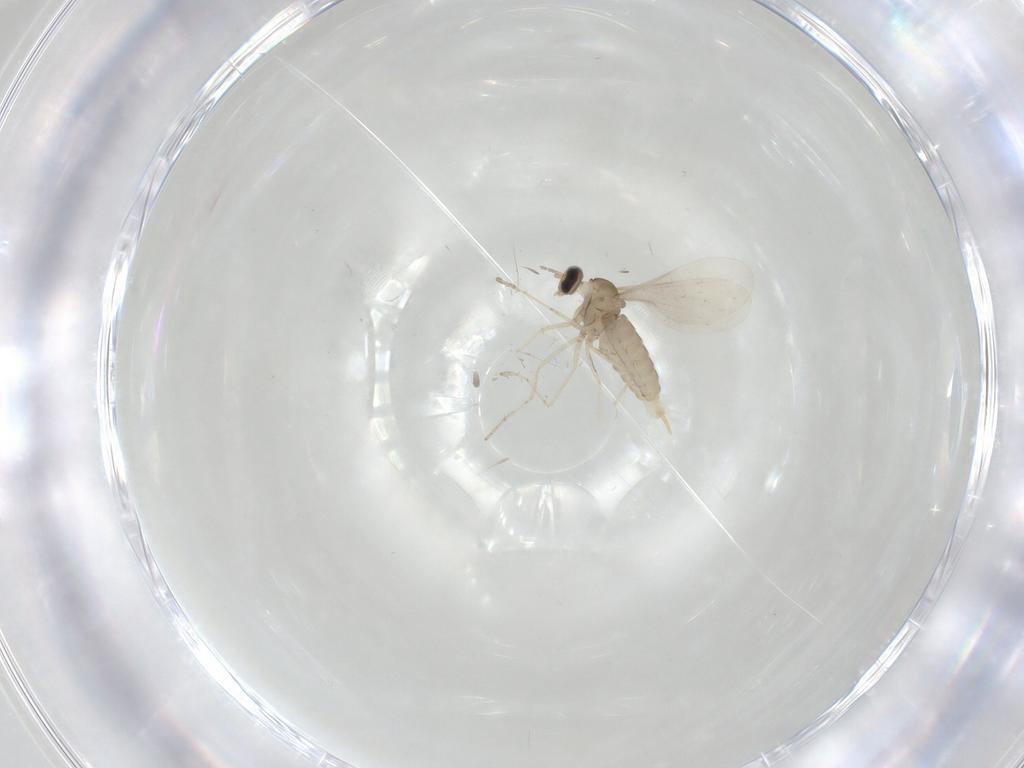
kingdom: Animalia
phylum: Arthropoda
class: Insecta
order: Diptera
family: Cecidomyiidae
